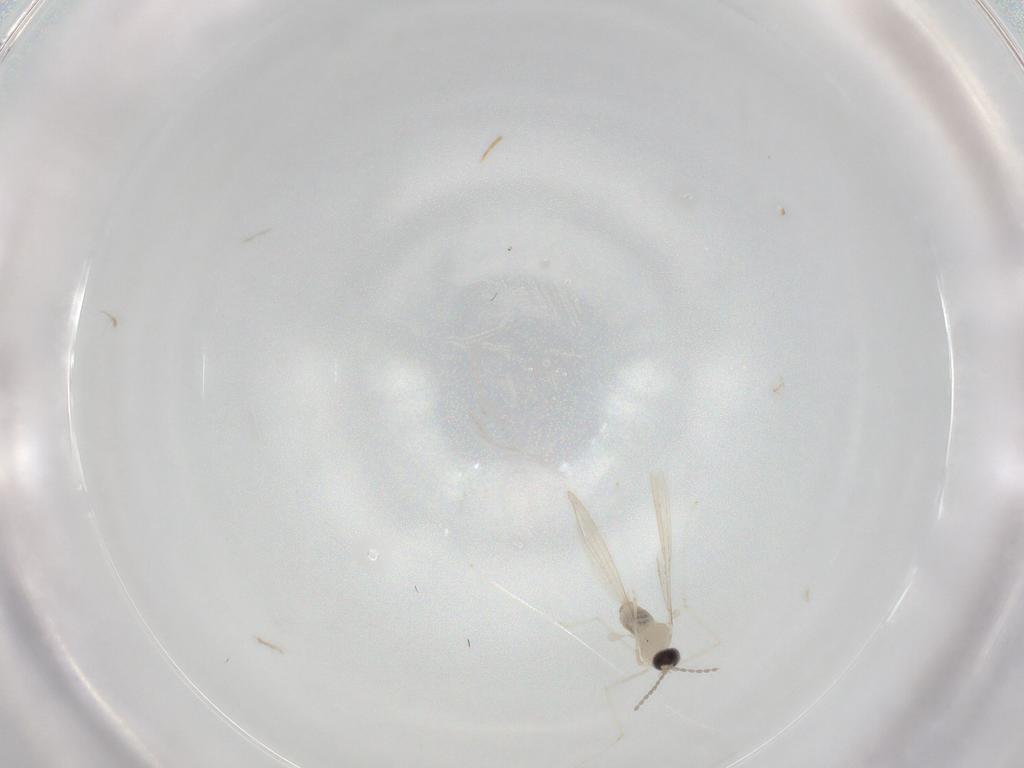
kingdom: Animalia
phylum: Arthropoda
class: Insecta
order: Diptera
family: Cecidomyiidae
